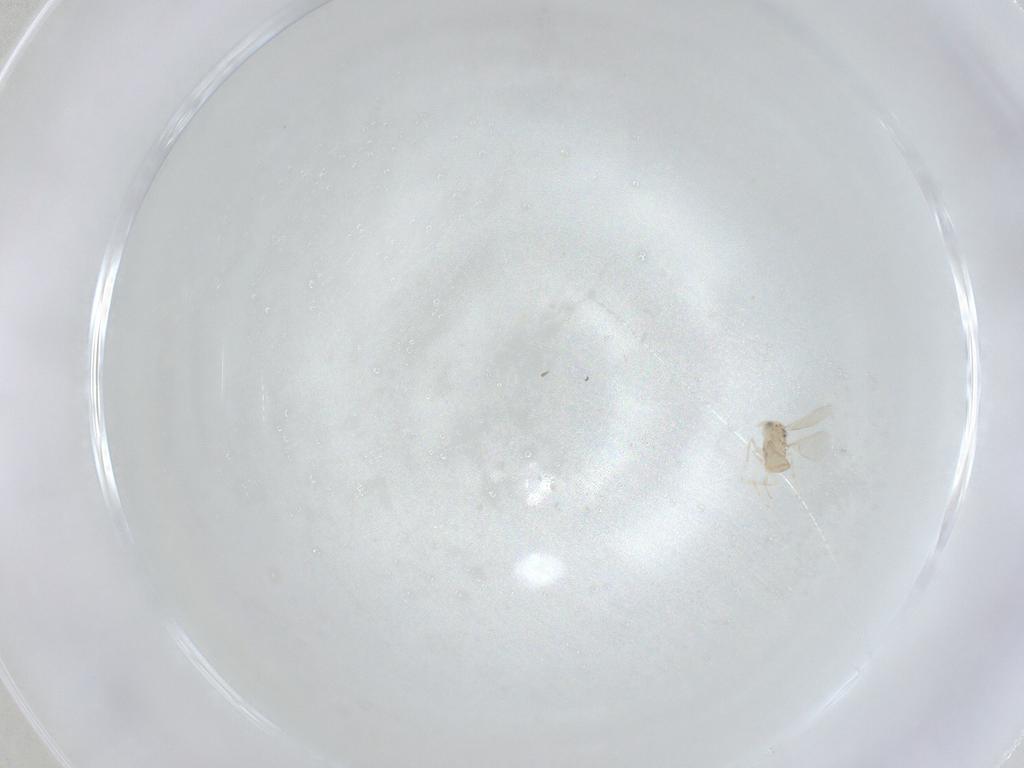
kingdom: Animalia
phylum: Arthropoda
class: Insecta
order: Hymenoptera
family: Aphelinidae
